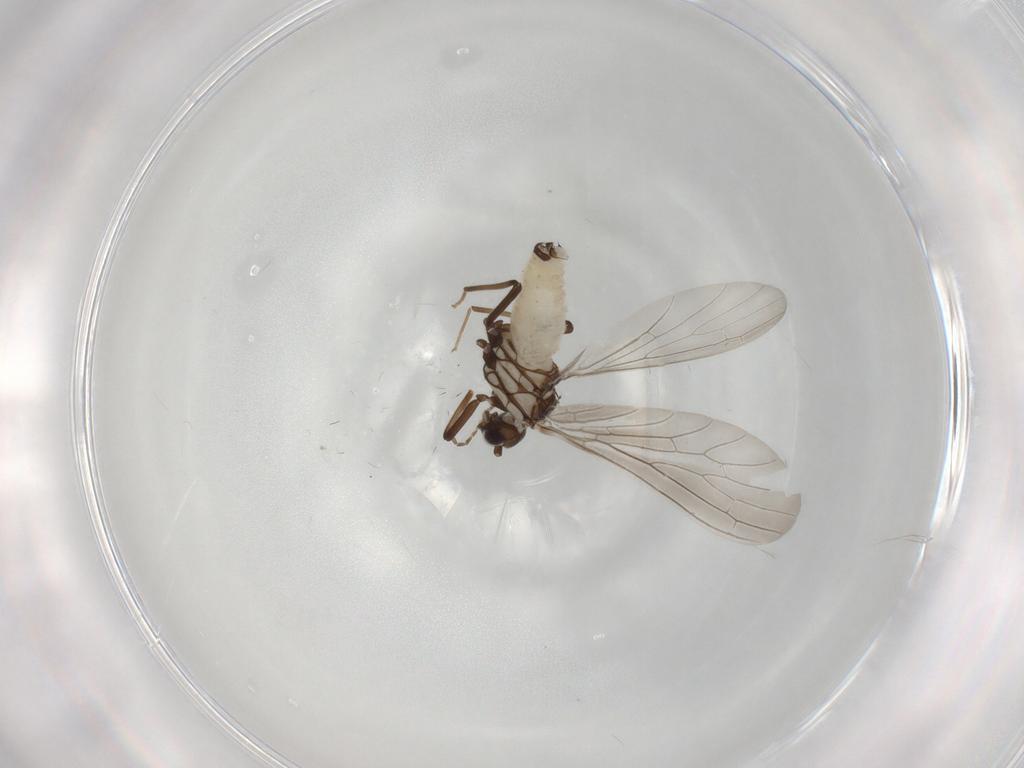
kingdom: Animalia
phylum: Arthropoda
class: Insecta
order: Neuroptera
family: Coniopterygidae
